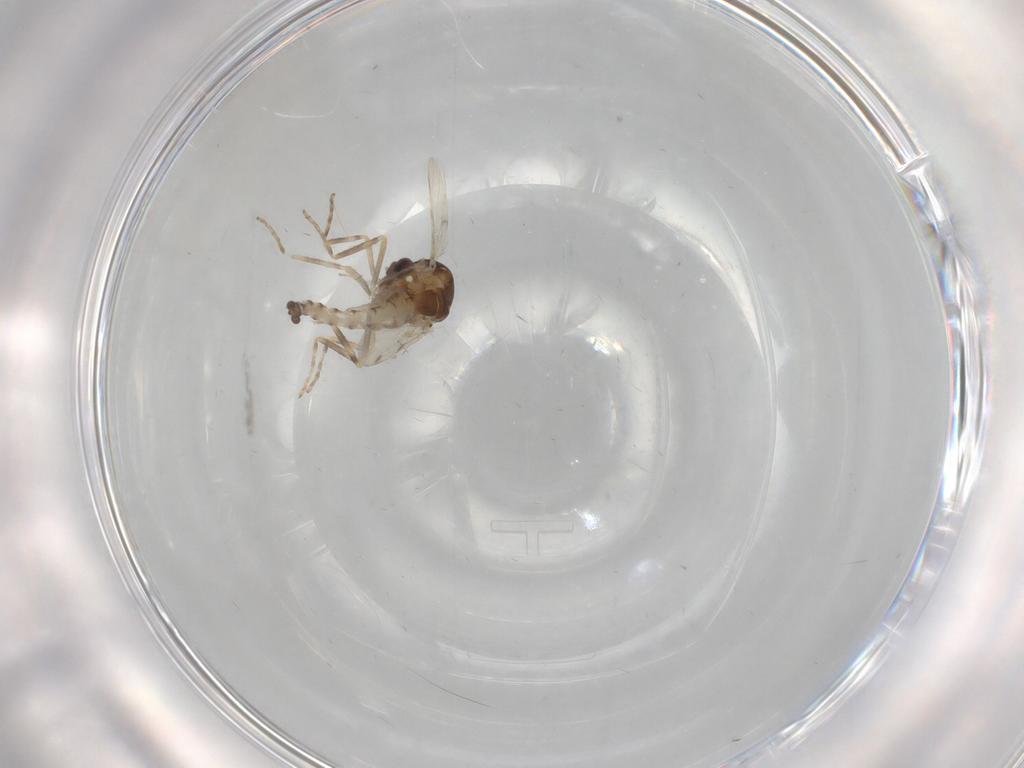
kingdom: Animalia
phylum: Arthropoda
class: Insecta
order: Diptera
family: Ceratopogonidae
